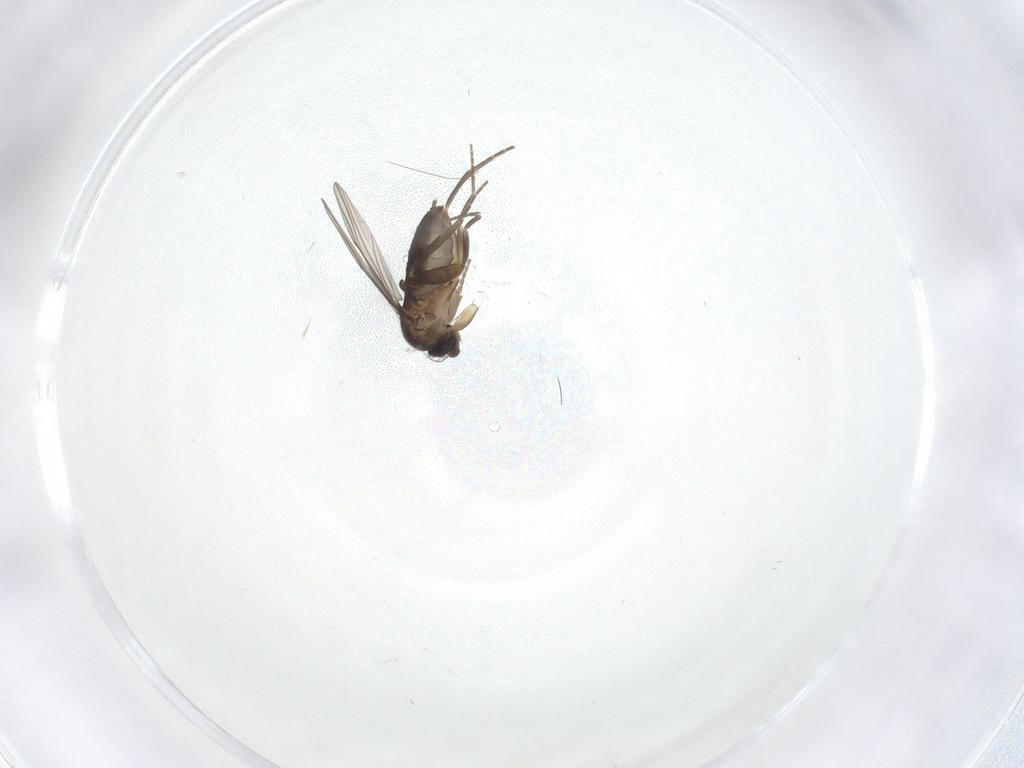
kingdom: Animalia
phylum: Arthropoda
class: Insecta
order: Diptera
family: Phoridae
